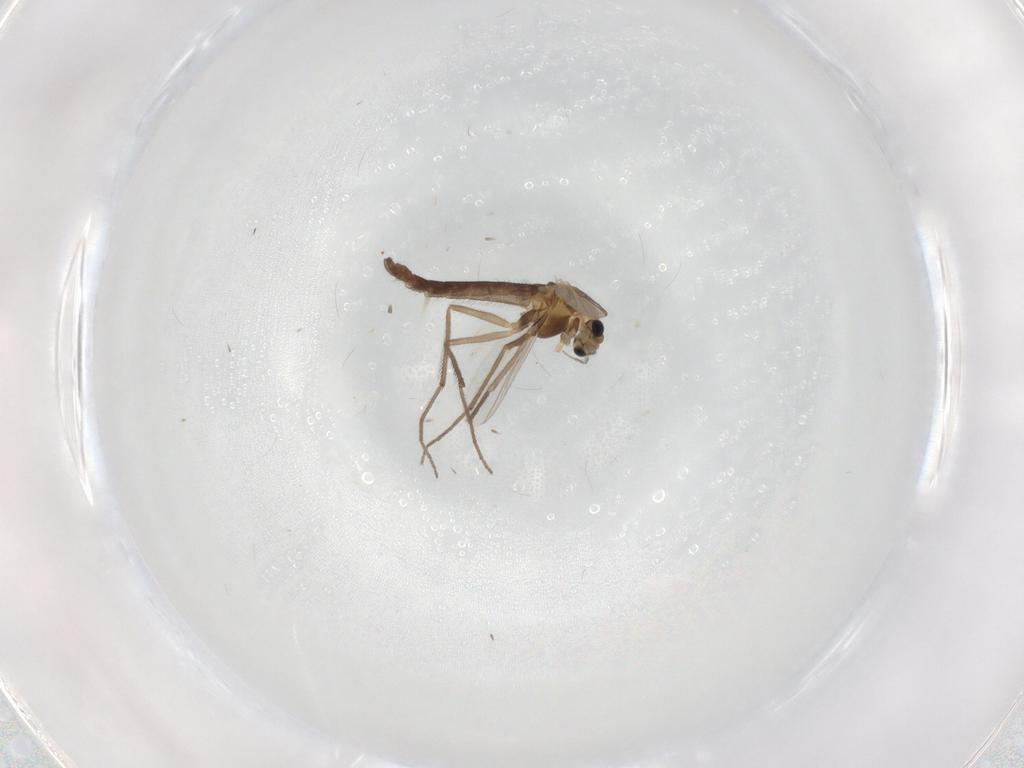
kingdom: Animalia
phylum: Arthropoda
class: Insecta
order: Diptera
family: Chironomidae
